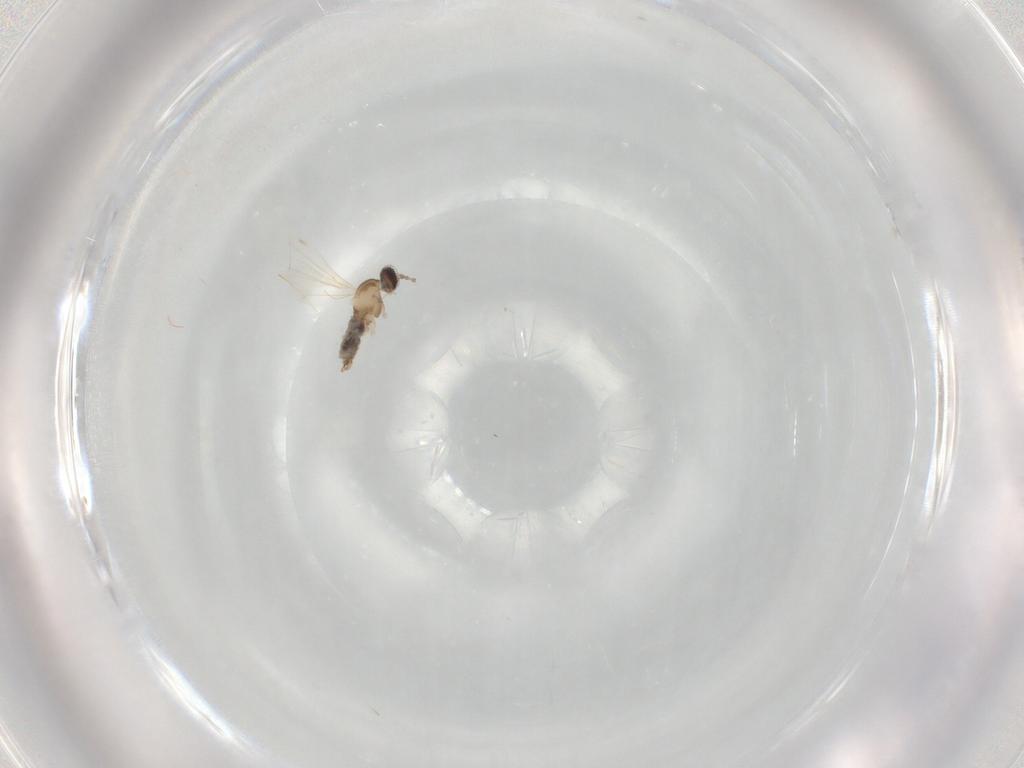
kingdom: Animalia
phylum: Arthropoda
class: Insecta
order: Diptera
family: Cecidomyiidae
